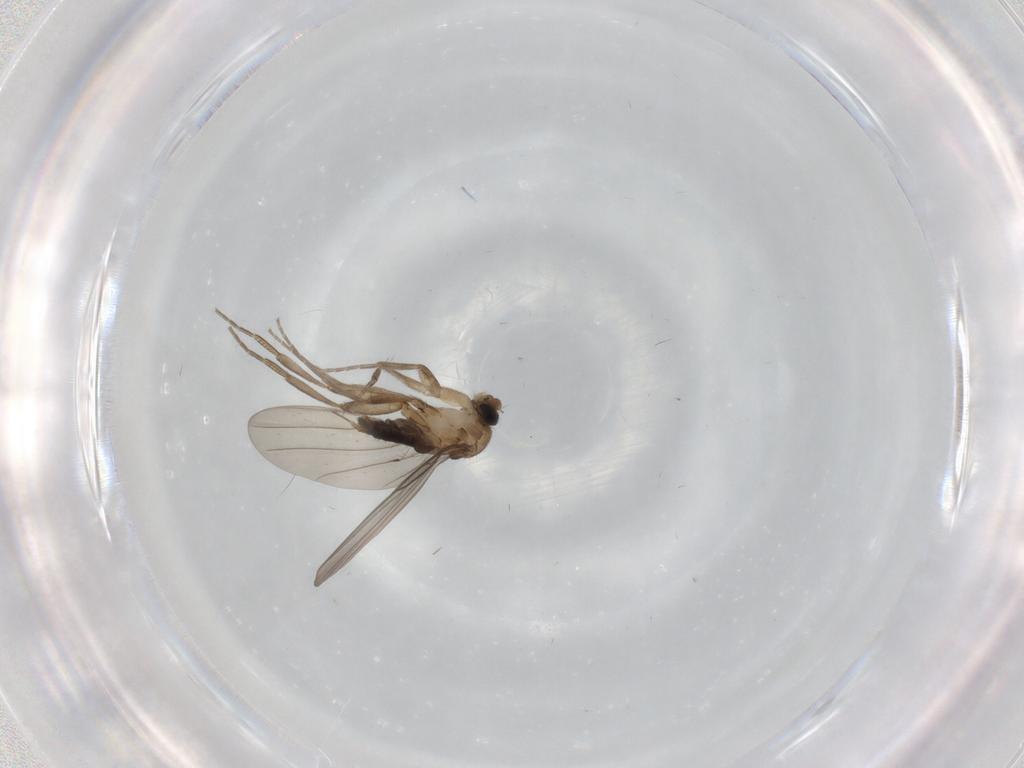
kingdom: Animalia
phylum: Arthropoda
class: Insecta
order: Diptera
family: Phoridae
